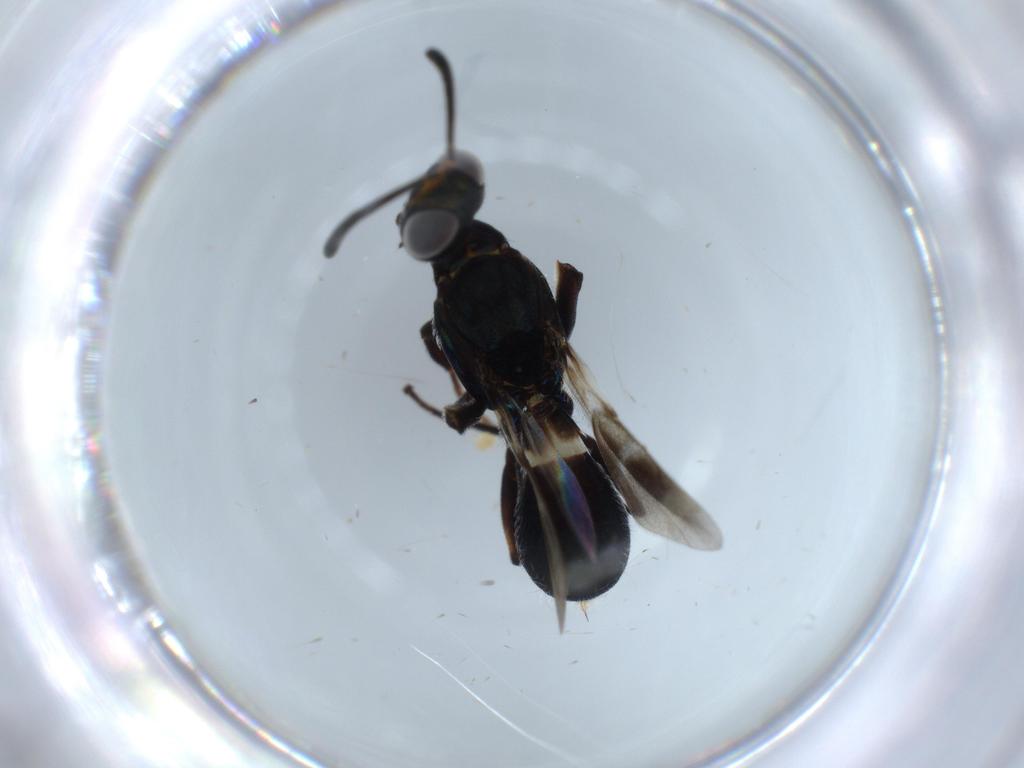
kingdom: Animalia
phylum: Arthropoda
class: Insecta
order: Hymenoptera
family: Eupelmidae
